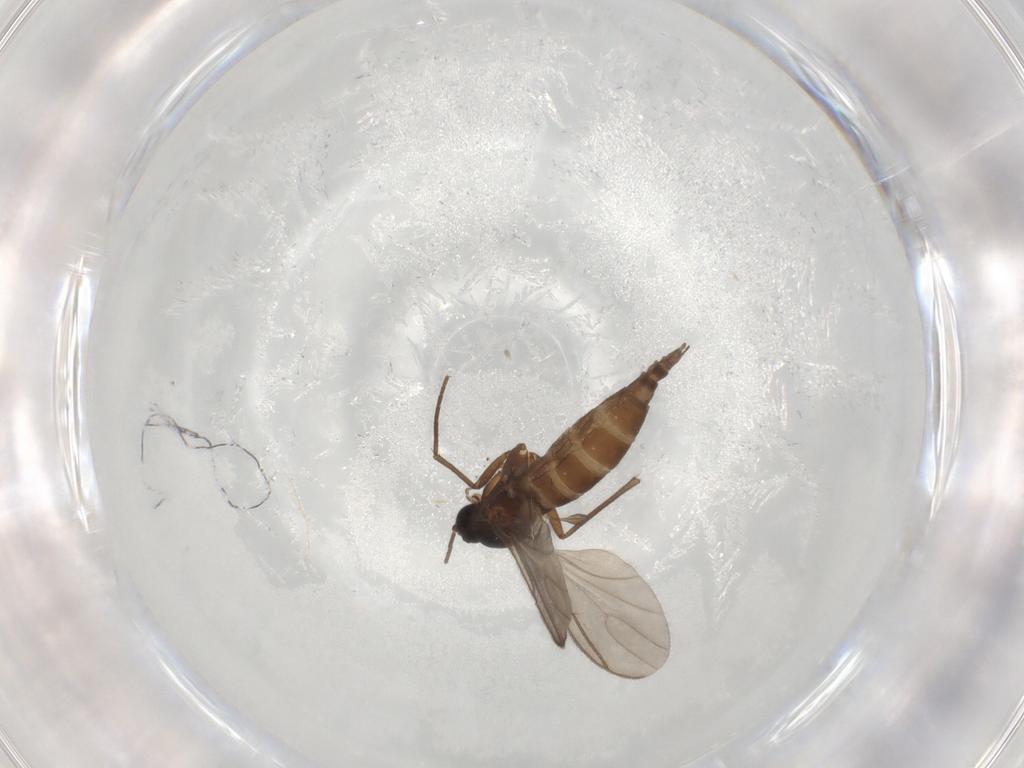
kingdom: Animalia
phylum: Arthropoda
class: Insecta
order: Diptera
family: Sciaridae
